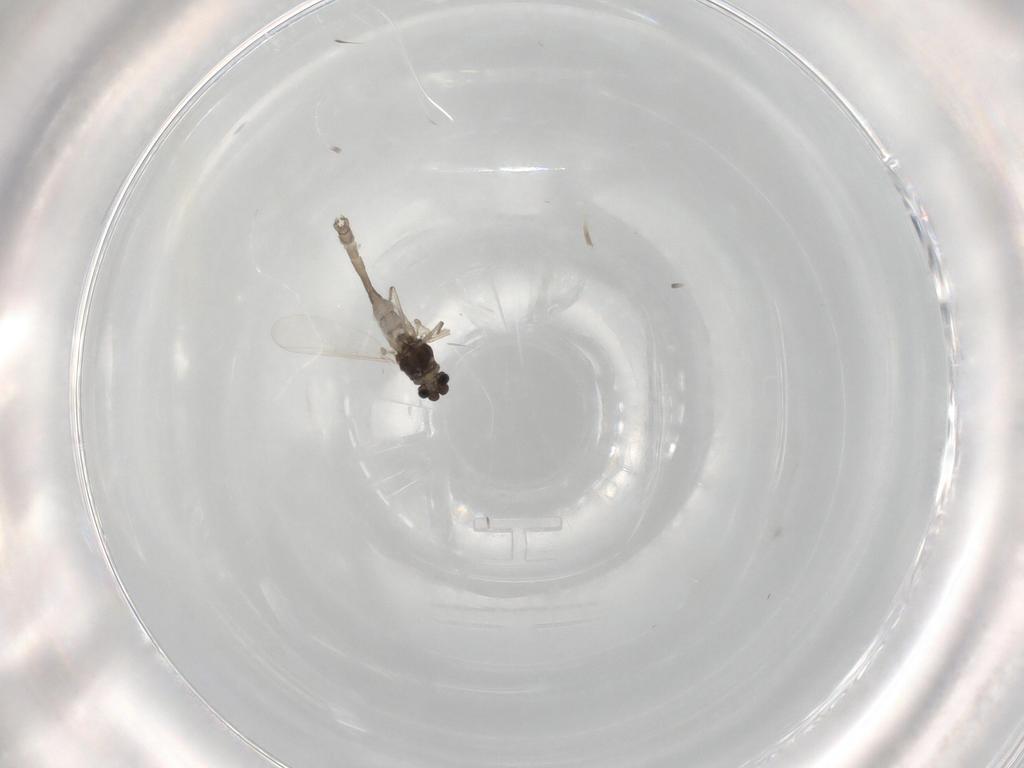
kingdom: Animalia
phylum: Arthropoda
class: Insecta
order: Diptera
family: Chironomidae
